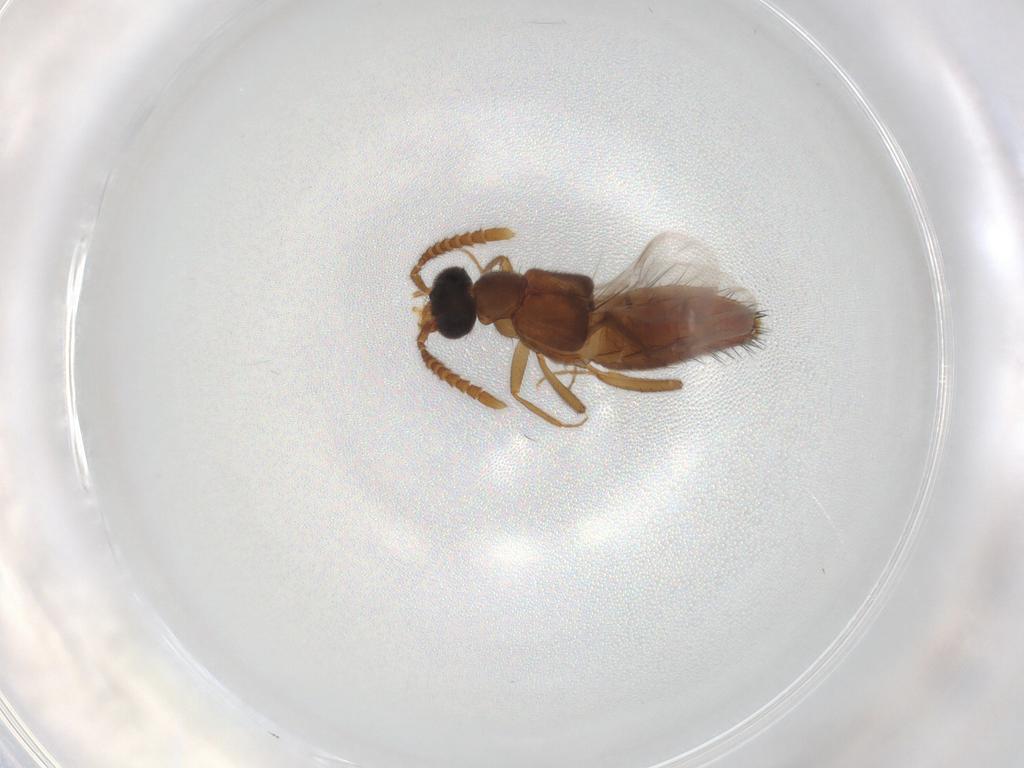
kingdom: Animalia
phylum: Arthropoda
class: Insecta
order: Coleoptera
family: Staphylinidae
